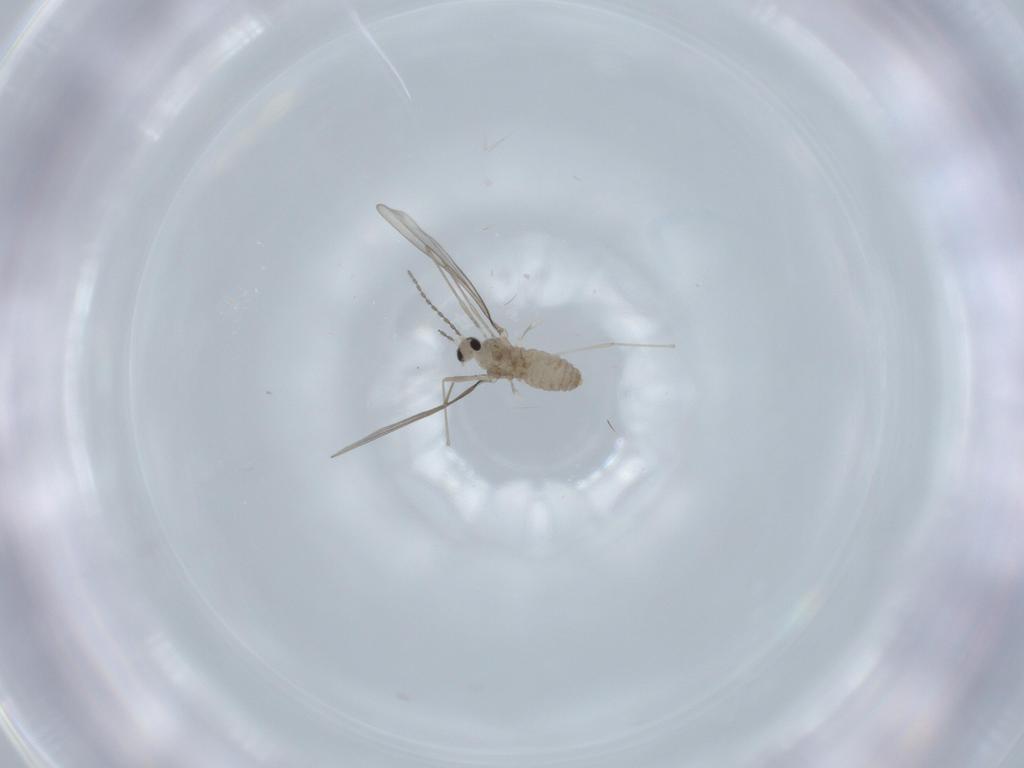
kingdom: Animalia
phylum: Arthropoda
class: Insecta
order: Diptera
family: Cecidomyiidae
